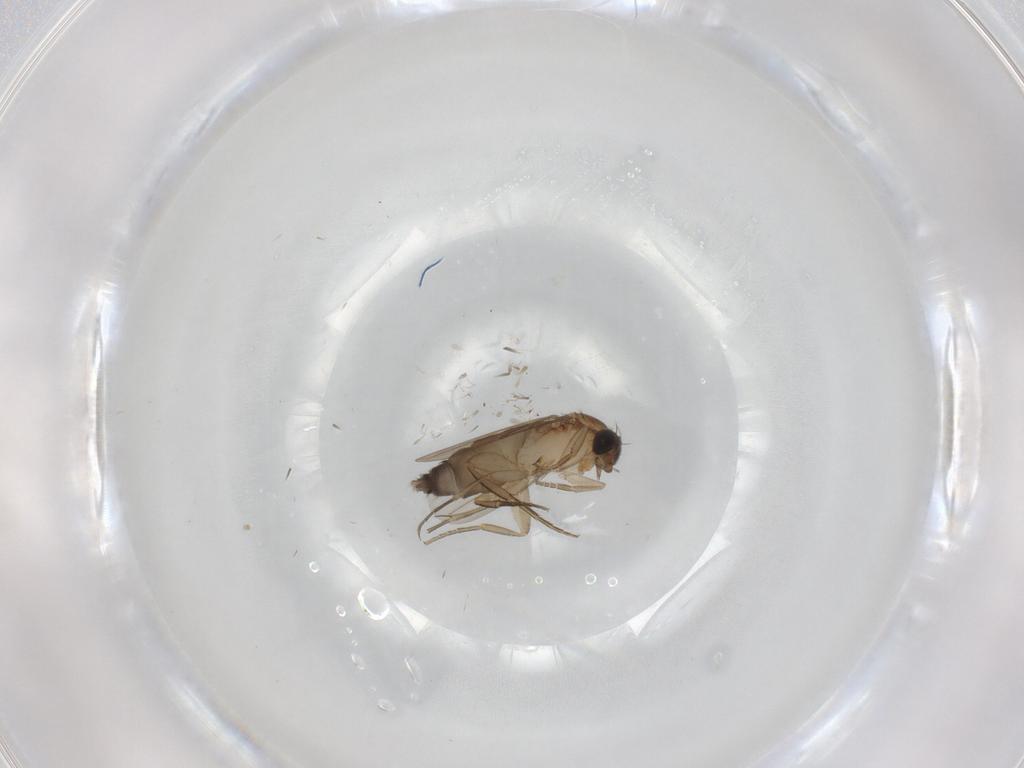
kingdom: Animalia
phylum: Arthropoda
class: Insecta
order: Diptera
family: Phoridae
